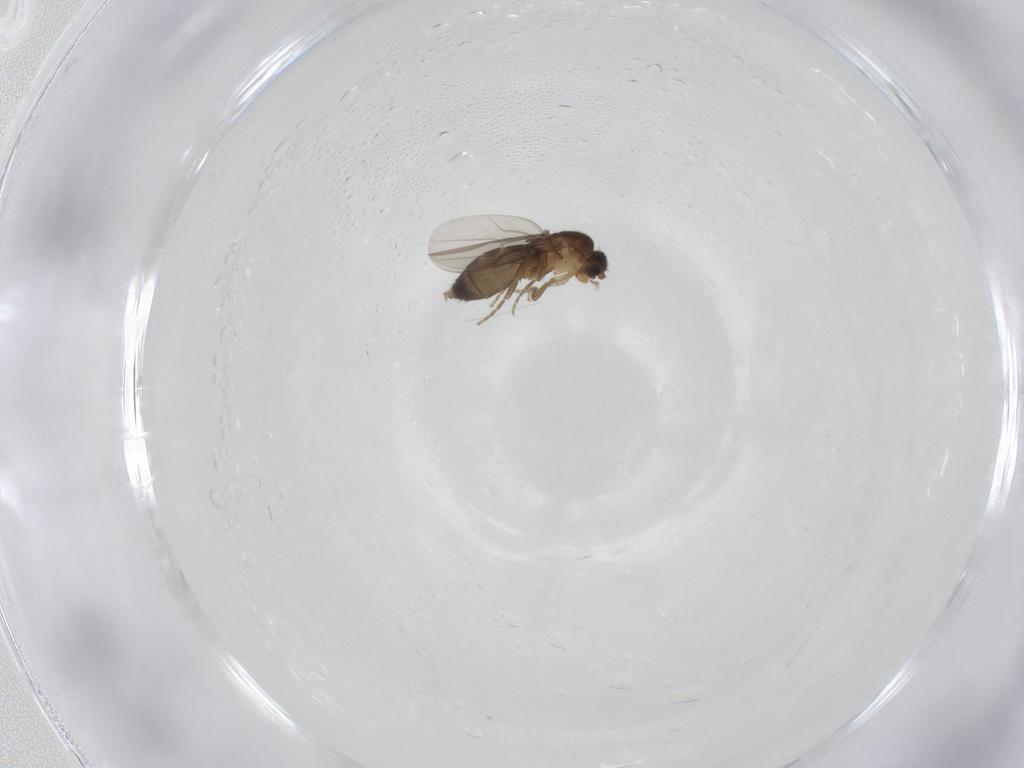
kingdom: Animalia
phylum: Arthropoda
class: Insecta
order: Diptera
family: Phoridae
